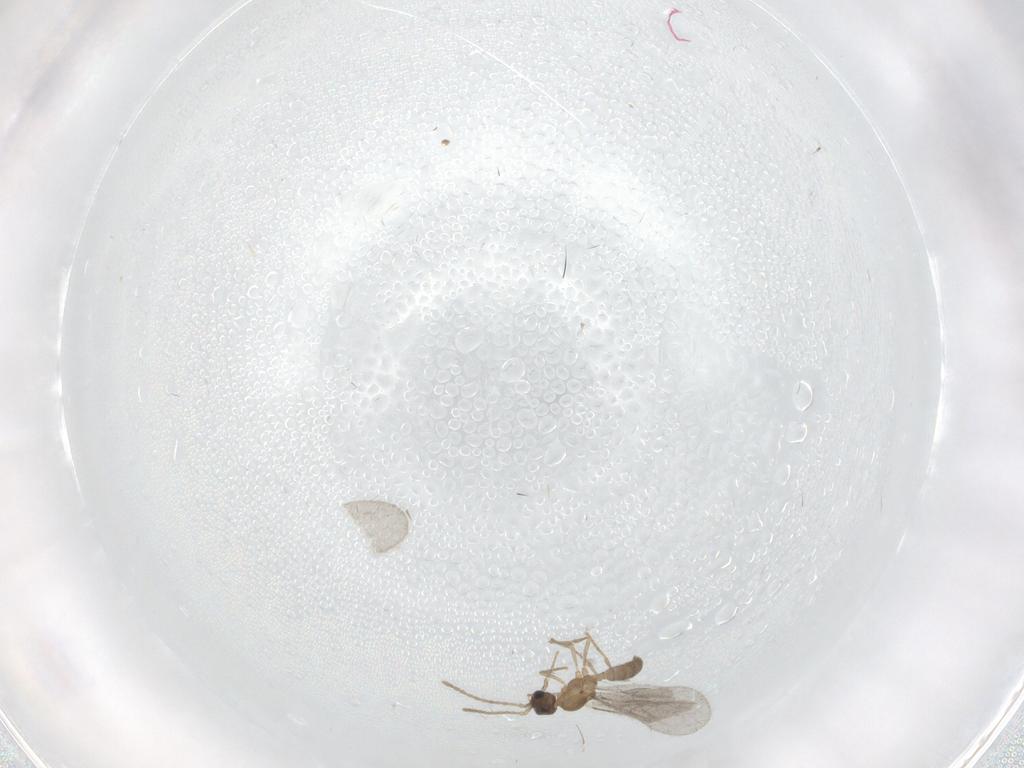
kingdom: Animalia
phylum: Arthropoda
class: Insecta
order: Hymenoptera
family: Formicidae
